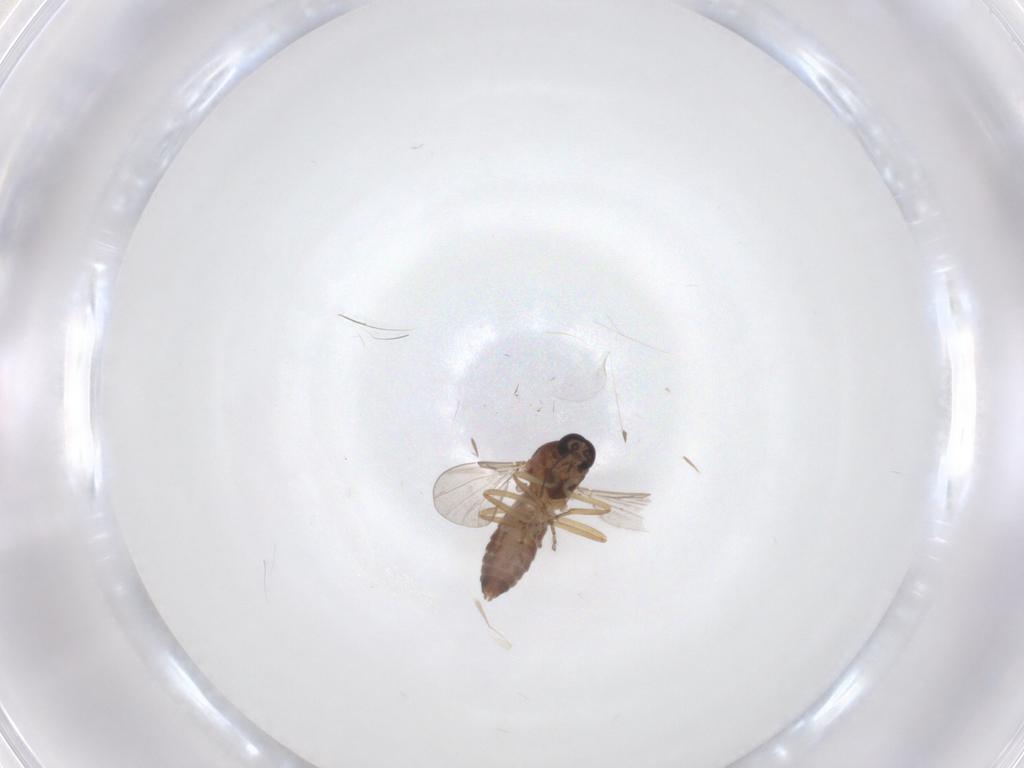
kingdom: Animalia
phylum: Arthropoda
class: Insecta
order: Diptera
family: Ceratopogonidae
